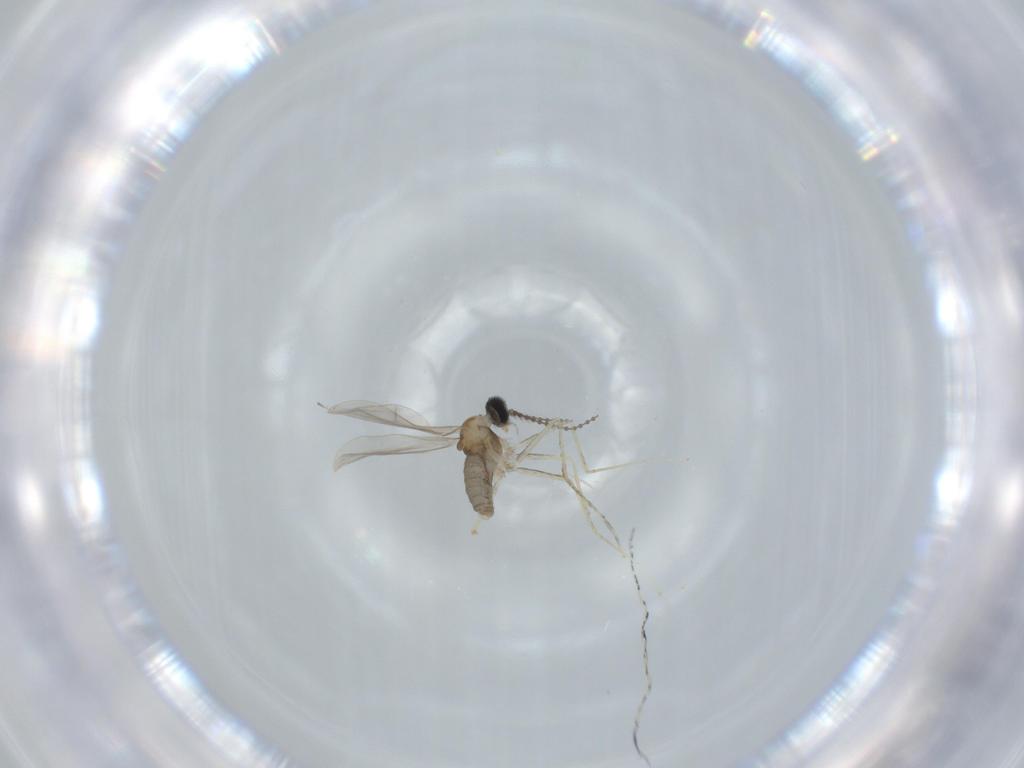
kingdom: Animalia
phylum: Arthropoda
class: Insecta
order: Diptera
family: Cecidomyiidae
